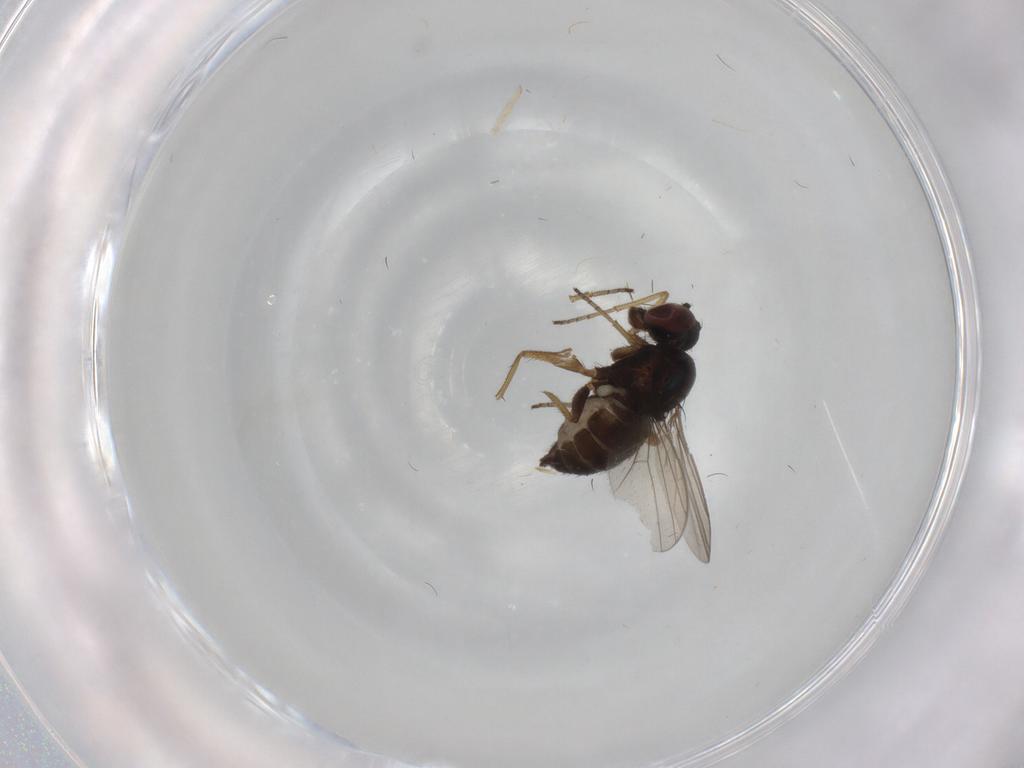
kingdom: Animalia
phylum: Arthropoda
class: Insecta
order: Diptera
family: Dolichopodidae
